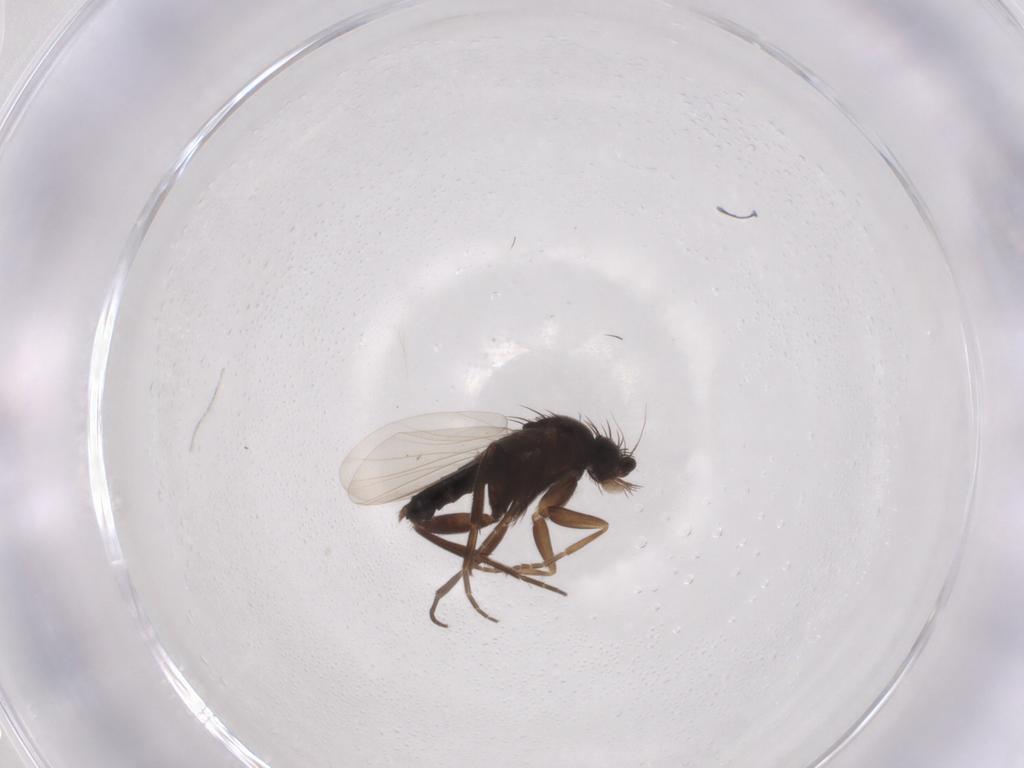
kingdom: Animalia
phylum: Arthropoda
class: Insecta
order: Diptera
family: Phoridae
